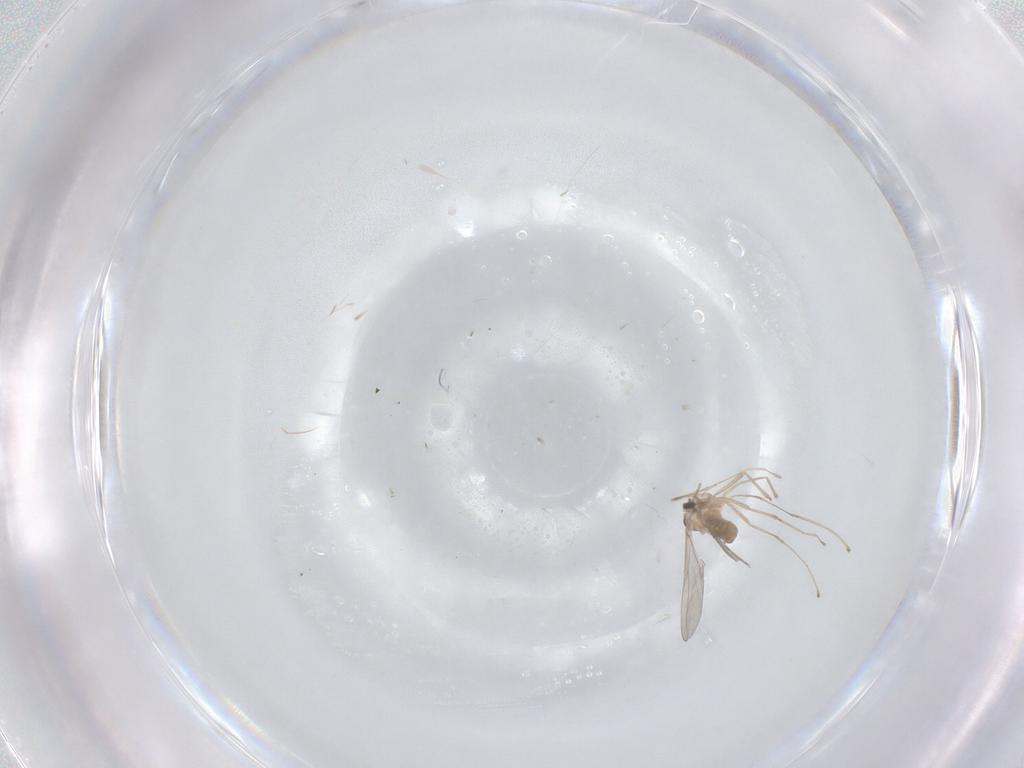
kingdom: Animalia
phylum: Arthropoda
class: Insecta
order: Diptera
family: Cecidomyiidae
